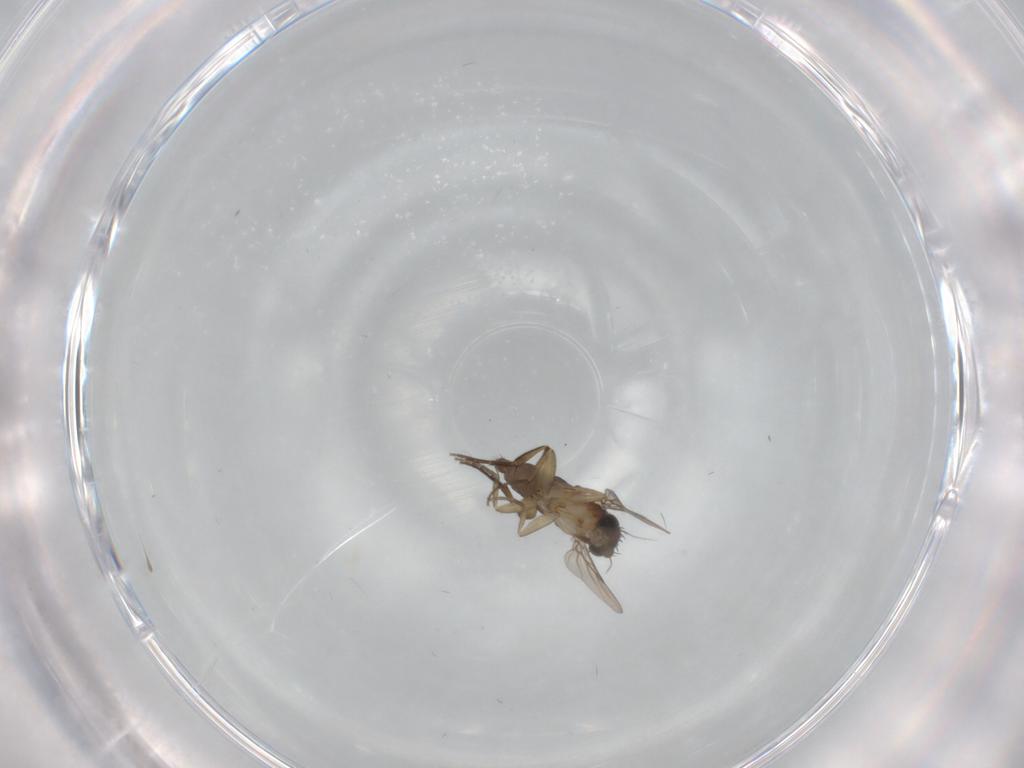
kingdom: Animalia
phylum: Arthropoda
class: Insecta
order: Diptera
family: Phoridae
